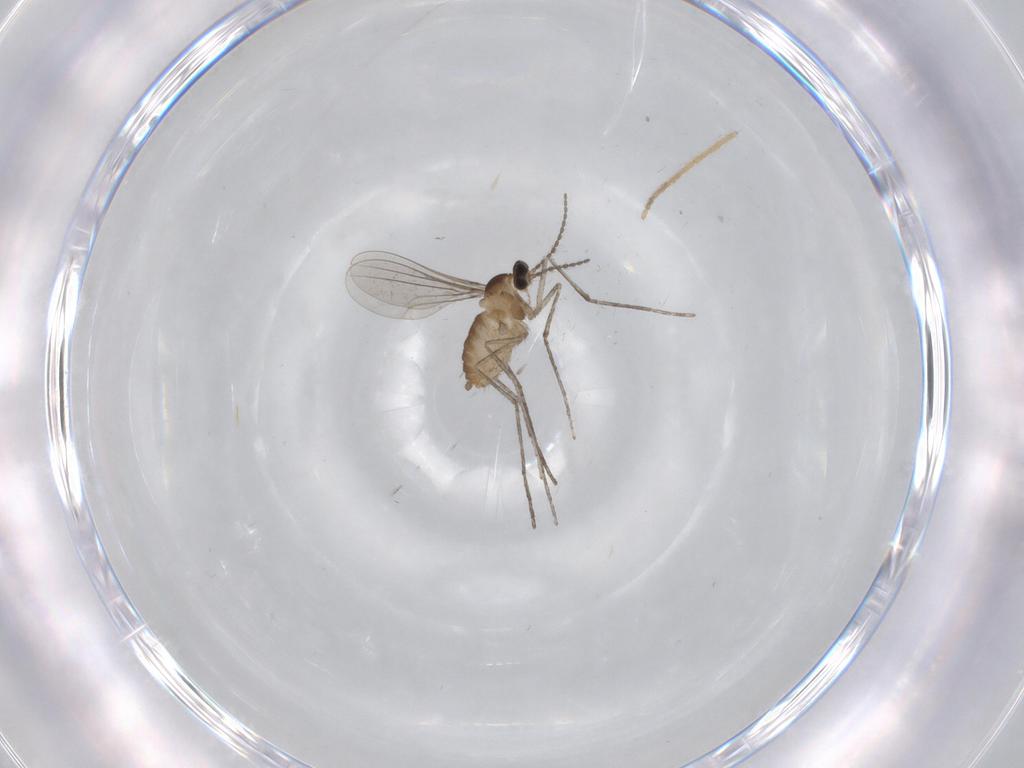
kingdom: Animalia
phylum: Arthropoda
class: Insecta
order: Diptera
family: Cecidomyiidae
